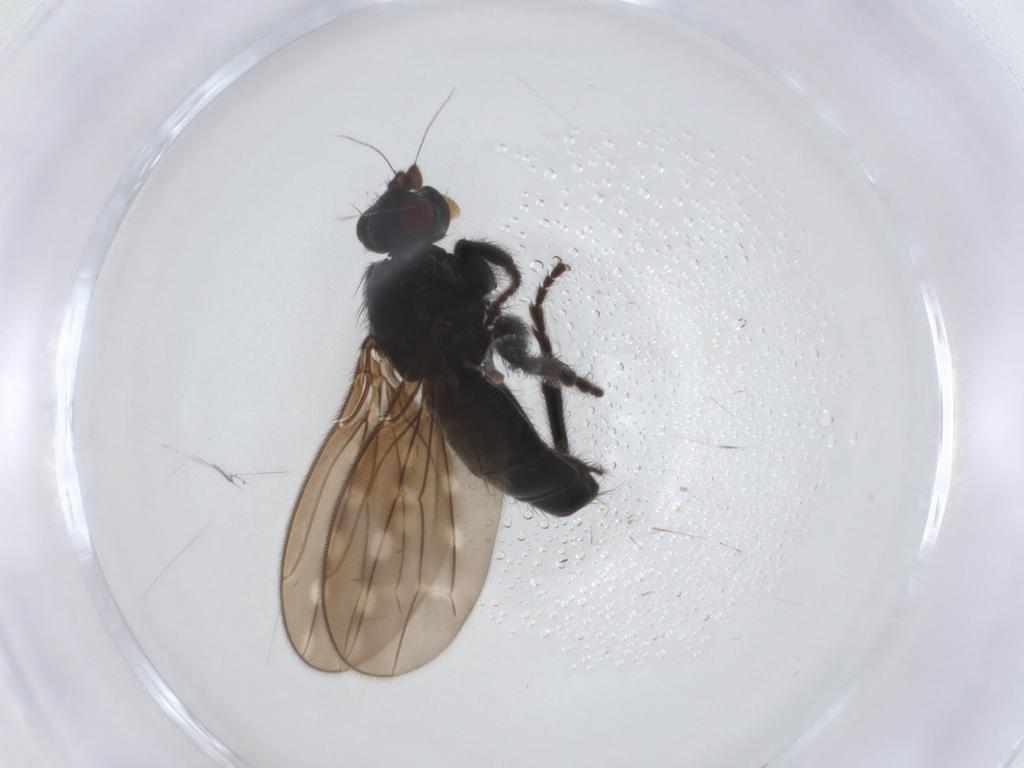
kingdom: Animalia
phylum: Arthropoda
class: Insecta
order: Diptera
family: Sphaeroceridae
